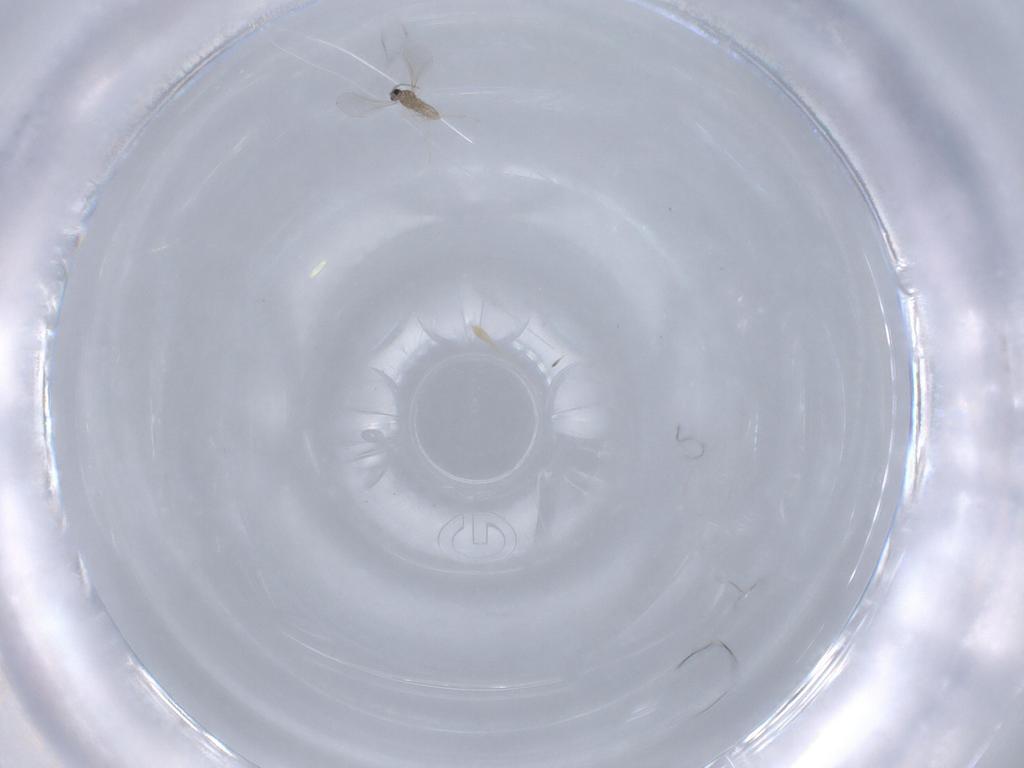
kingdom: Animalia
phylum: Arthropoda
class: Insecta
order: Diptera
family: Cecidomyiidae
